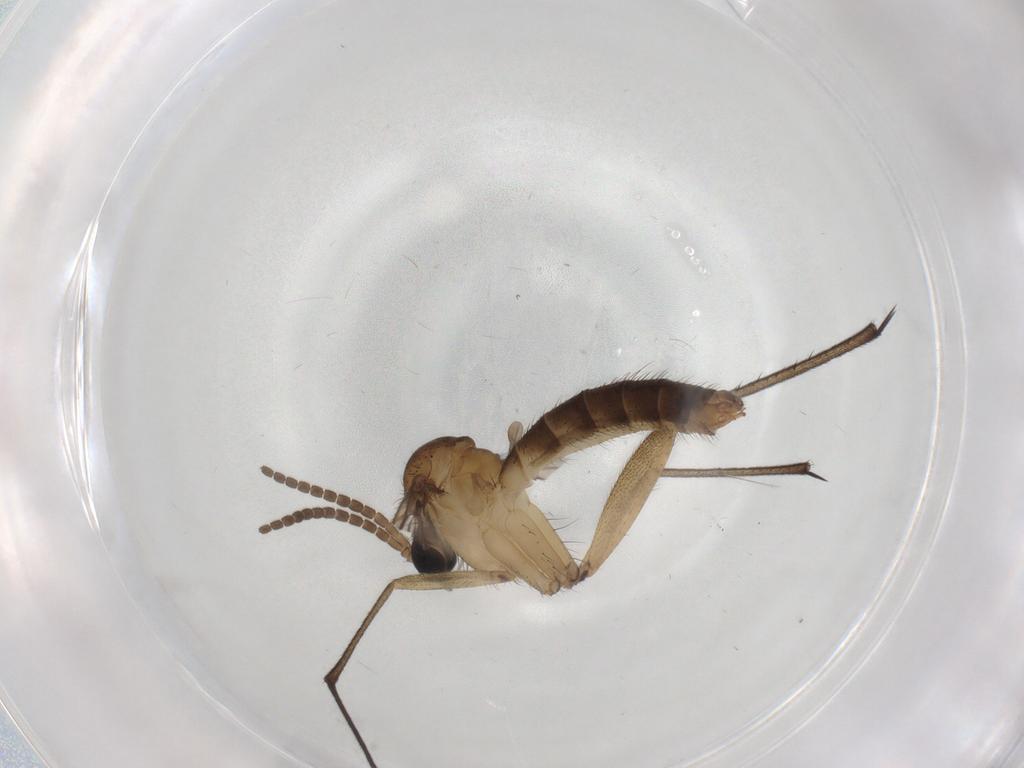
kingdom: Animalia
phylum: Arthropoda
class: Insecta
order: Diptera
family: Psychodidae
